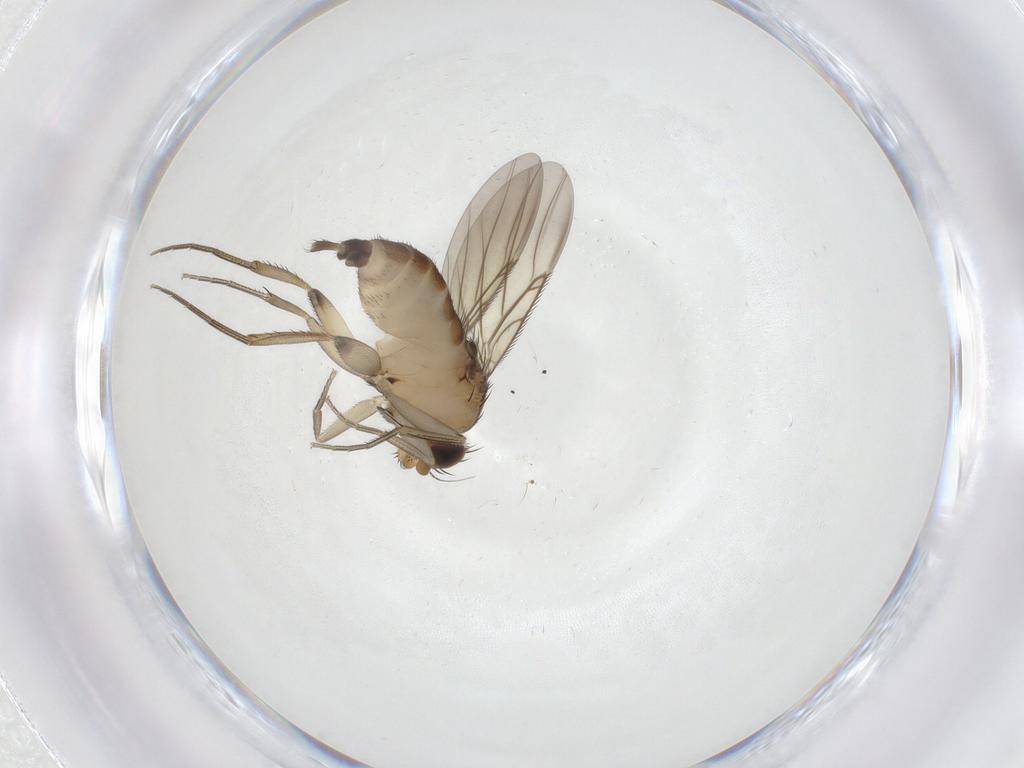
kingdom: Animalia
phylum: Arthropoda
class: Insecta
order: Diptera
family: Phoridae
